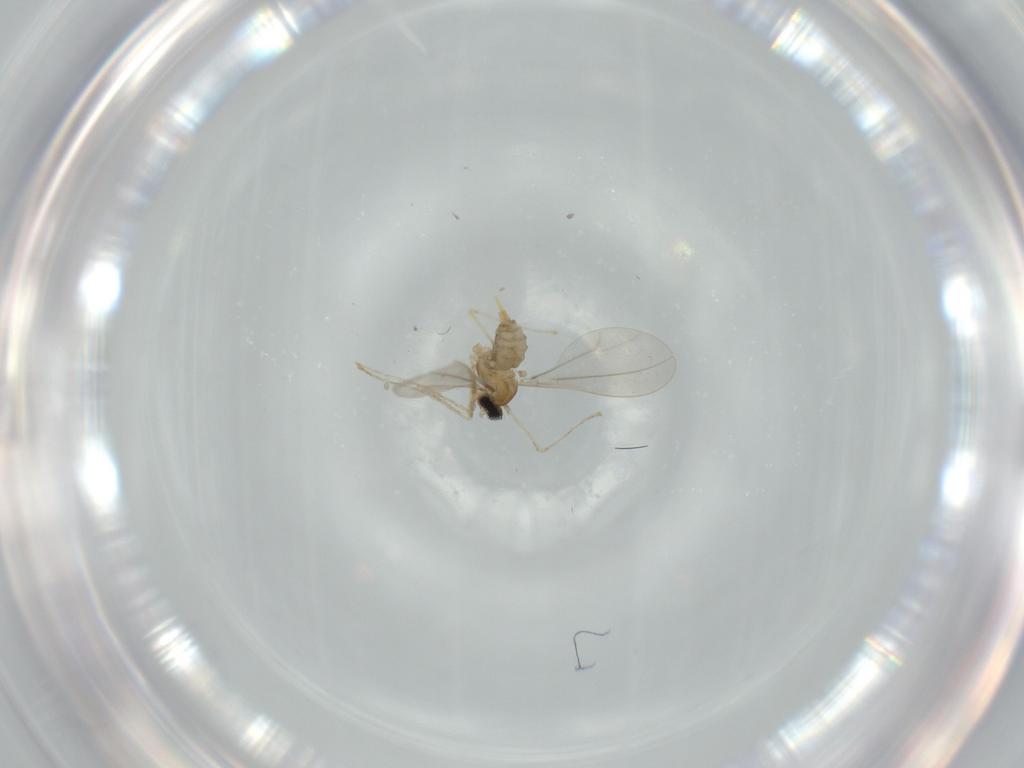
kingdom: Animalia
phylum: Arthropoda
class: Insecta
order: Diptera
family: Cecidomyiidae
